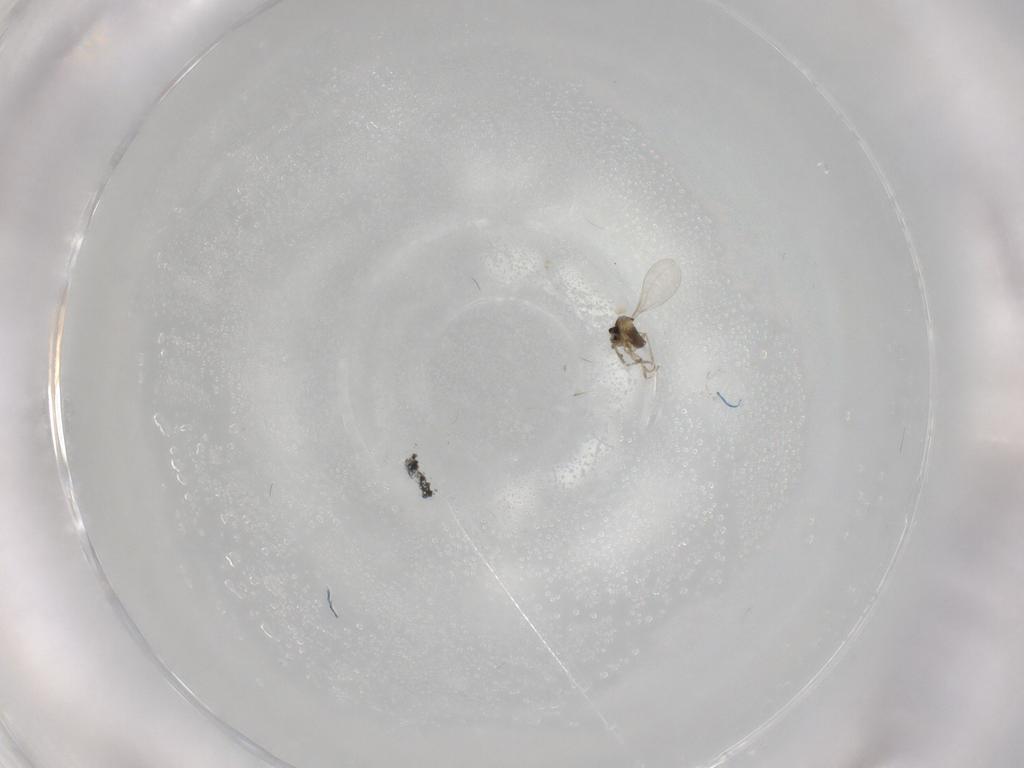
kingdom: Animalia
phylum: Arthropoda
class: Insecta
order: Diptera
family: Cecidomyiidae
